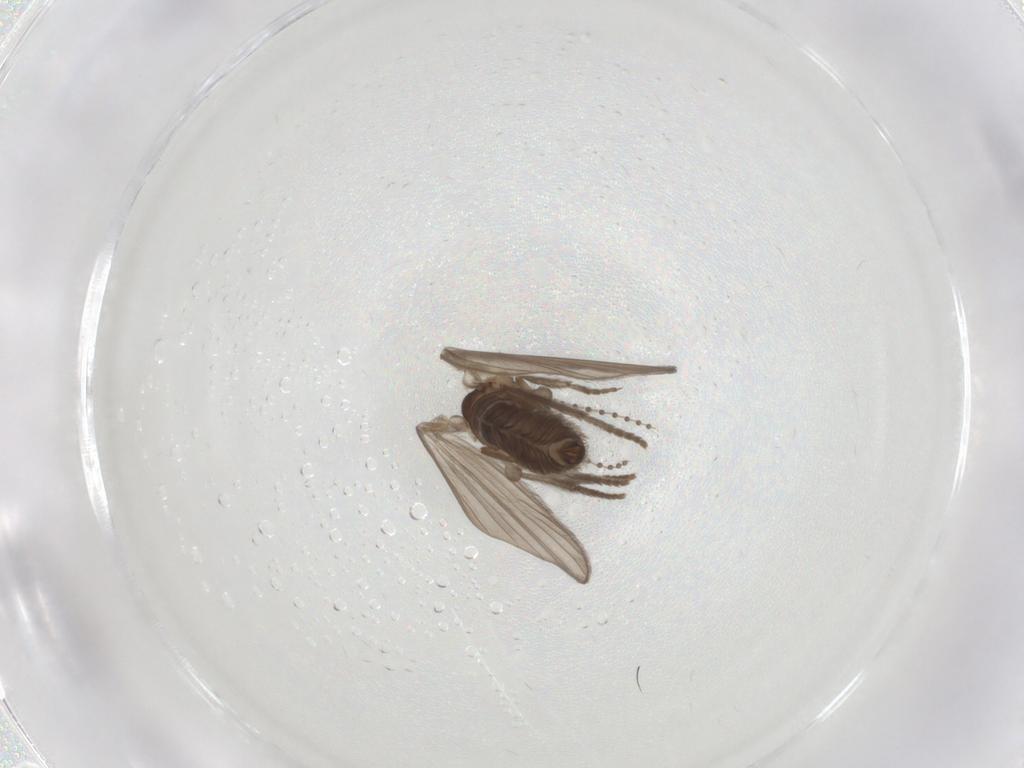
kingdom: Animalia
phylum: Arthropoda
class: Insecta
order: Diptera
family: Psychodidae
